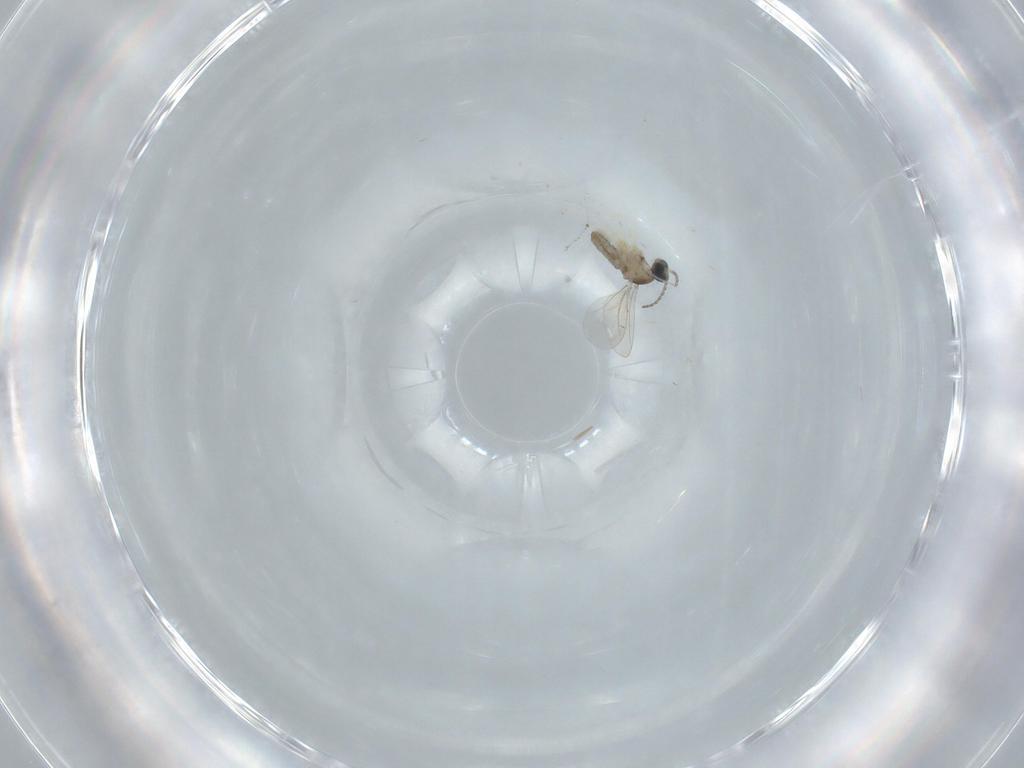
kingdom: Animalia
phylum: Arthropoda
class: Insecta
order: Diptera
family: Cecidomyiidae
